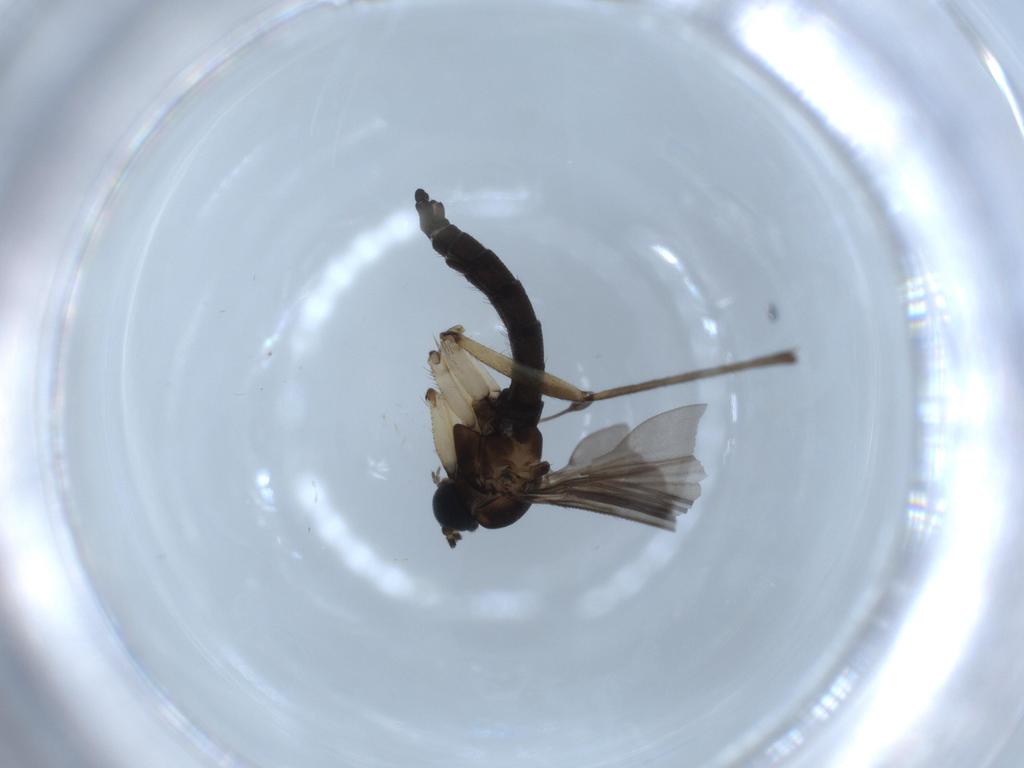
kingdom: Animalia
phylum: Arthropoda
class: Insecta
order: Diptera
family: Sciaridae
